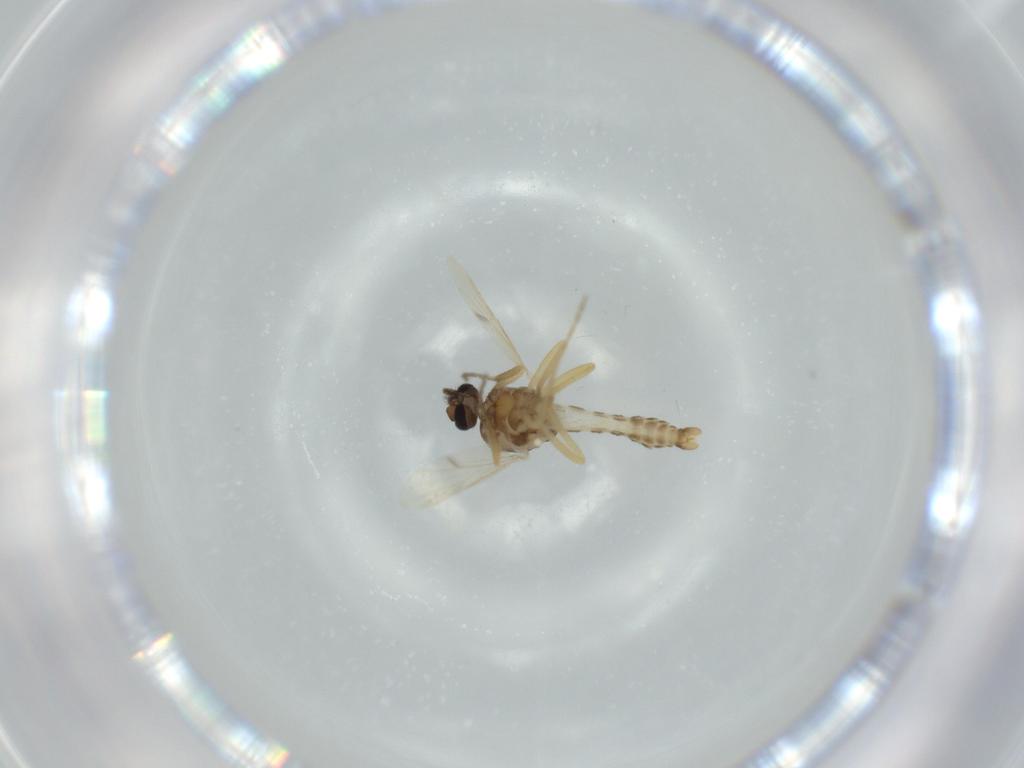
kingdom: Animalia
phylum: Arthropoda
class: Insecta
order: Diptera
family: Ceratopogonidae
